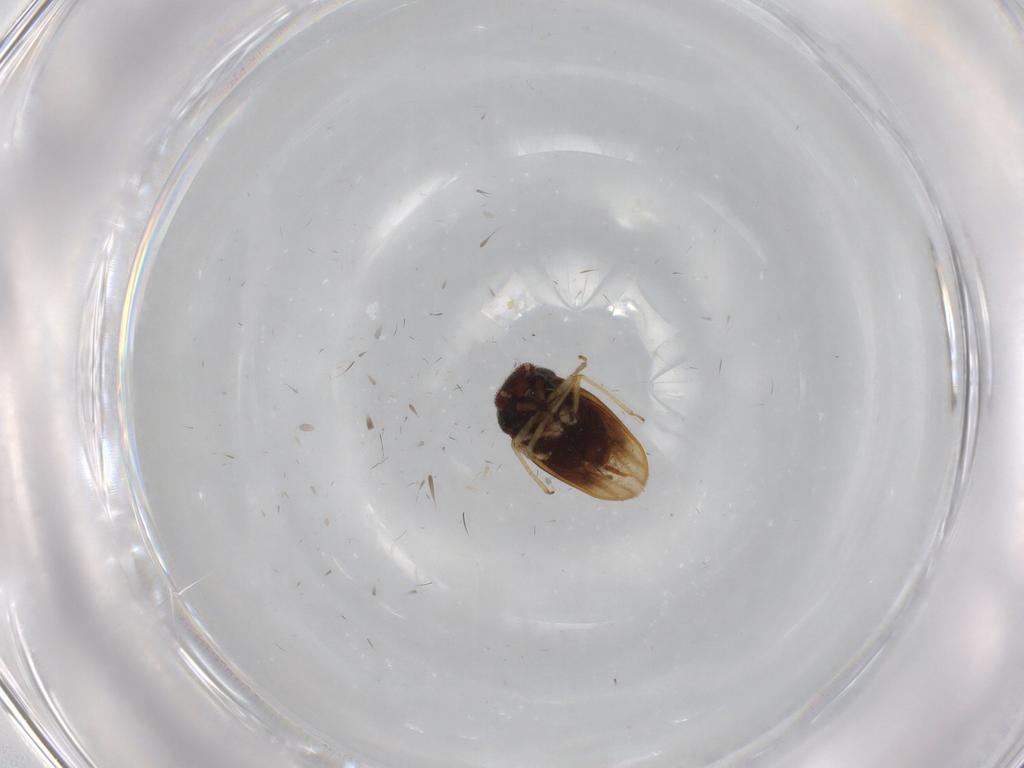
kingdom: Animalia
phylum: Arthropoda
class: Insecta
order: Hemiptera
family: Schizopteridae
